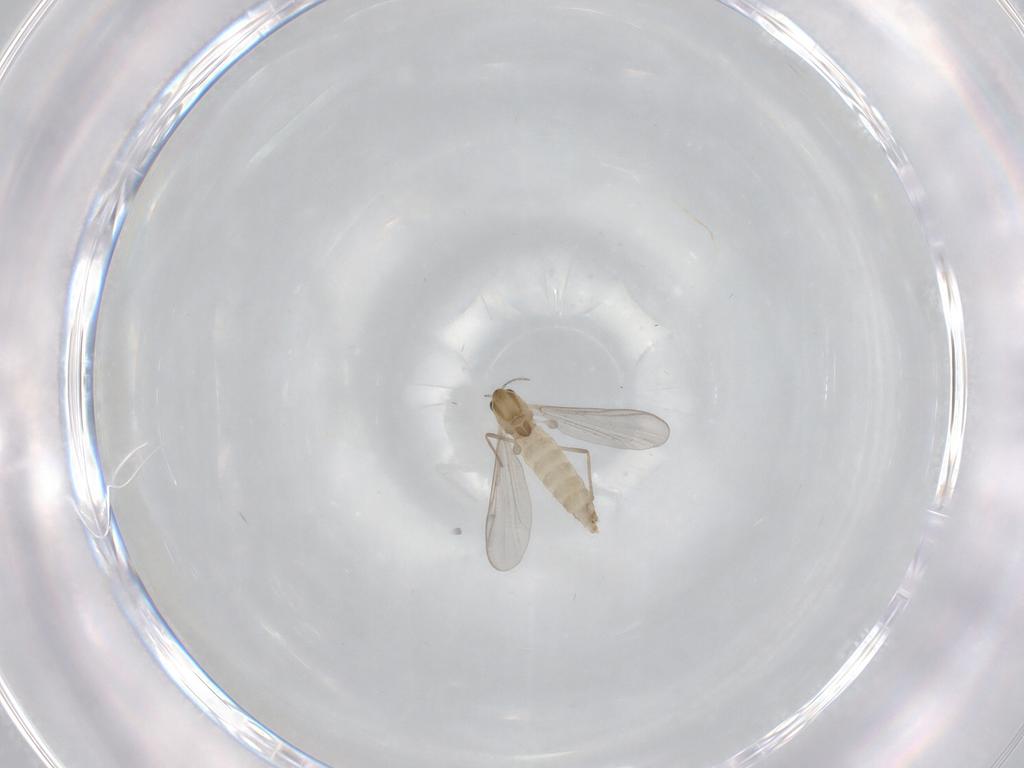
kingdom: Animalia
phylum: Arthropoda
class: Insecta
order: Diptera
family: Chironomidae
